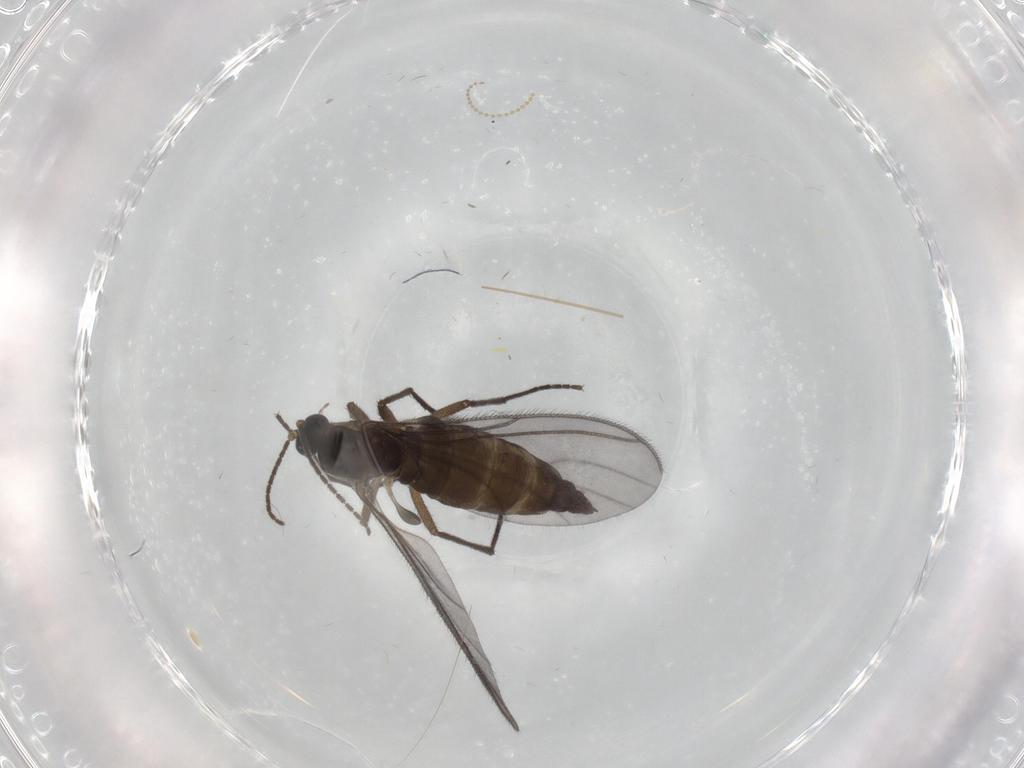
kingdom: Animalia
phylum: Arthropoda
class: Insecta
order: Diptera
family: Sciaridae
